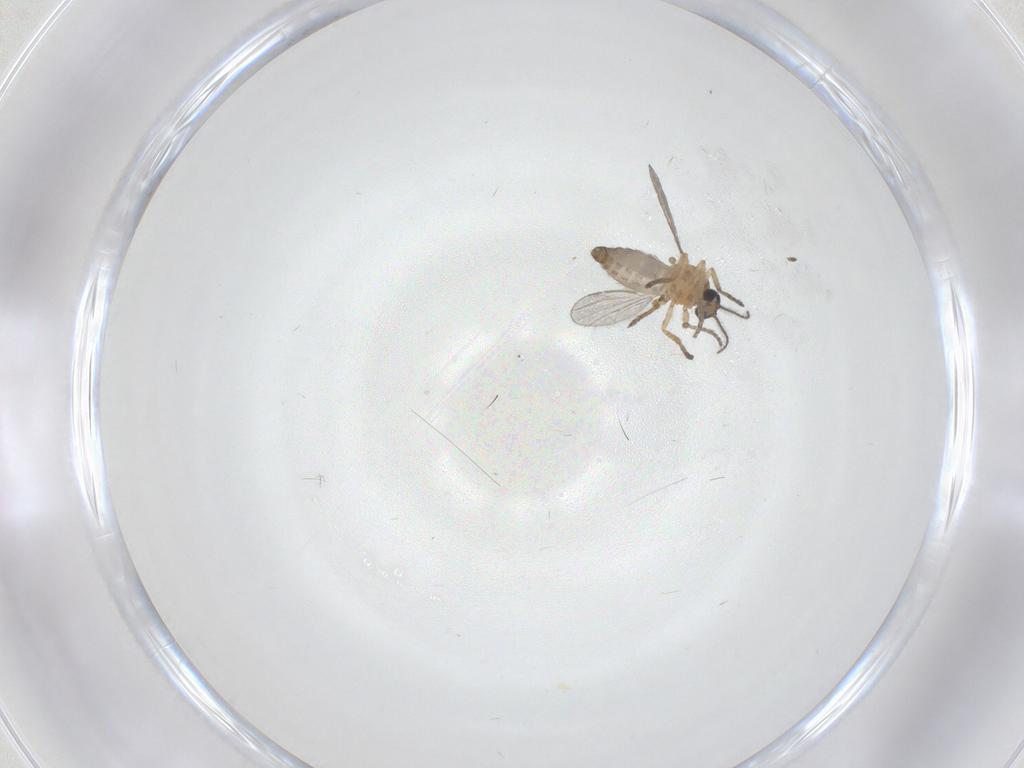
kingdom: Animalia
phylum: Arthropoda
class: Insecta
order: Diptera
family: Ceratopogonidae
